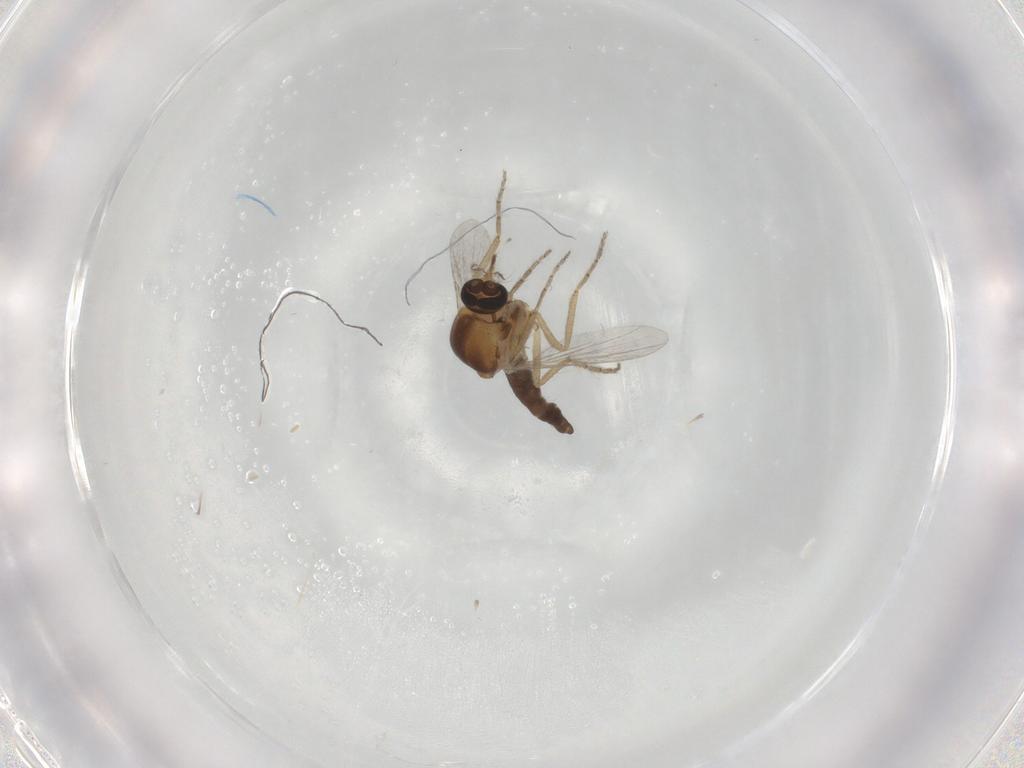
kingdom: Animalia
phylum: Arthropoda
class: Insecta
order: Diptera
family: Ceratopogonidae
